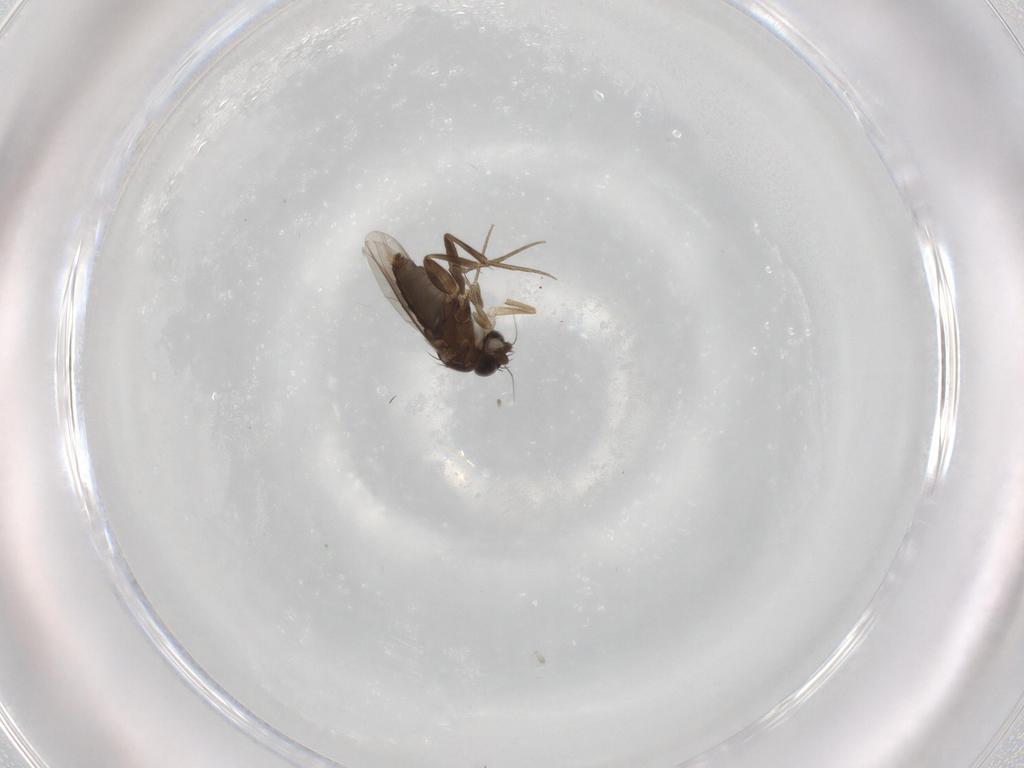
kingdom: Animalia
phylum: Arthropoda
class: Insecta
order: Diptera
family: Phoridae
